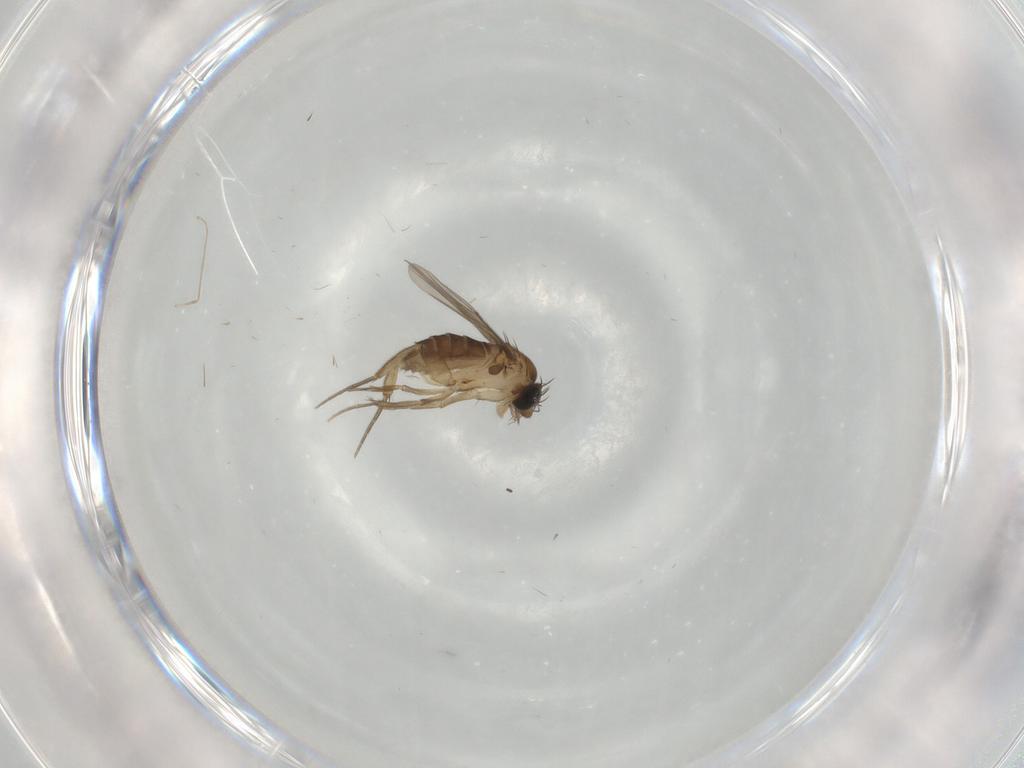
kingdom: Animalia
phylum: Arthropoda
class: Insecta
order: Diptera
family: Cecidomyiidae
